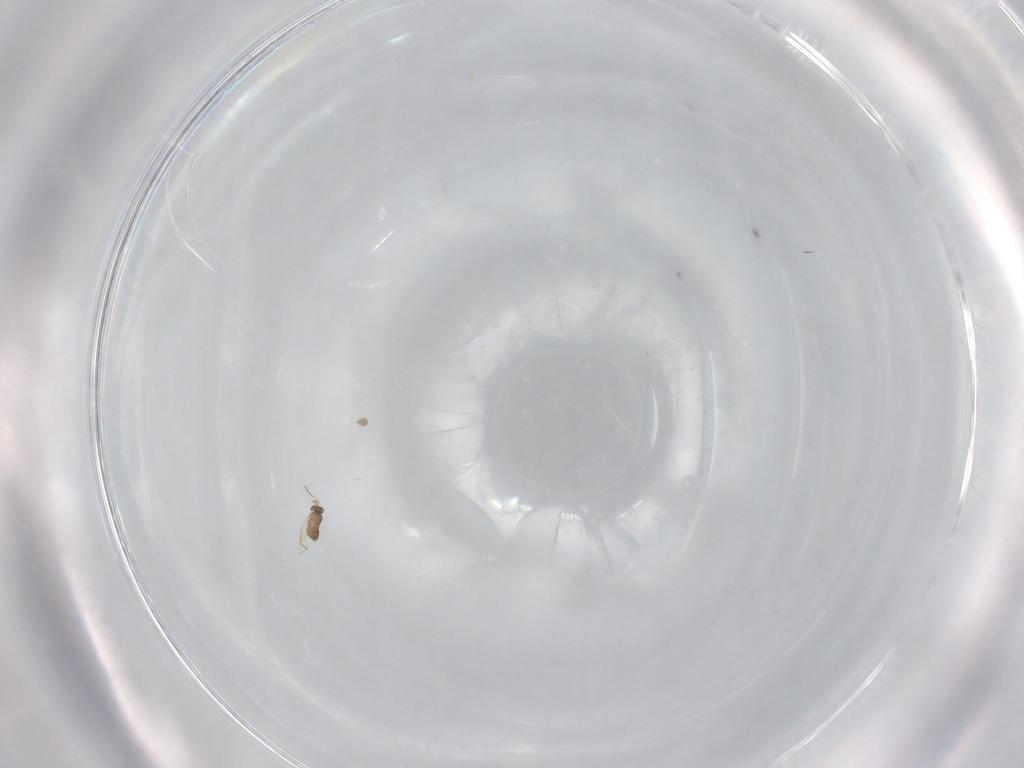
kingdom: Animalia
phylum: Arthropoda
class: Insecta
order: Hymenoptera
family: Mymaridae
